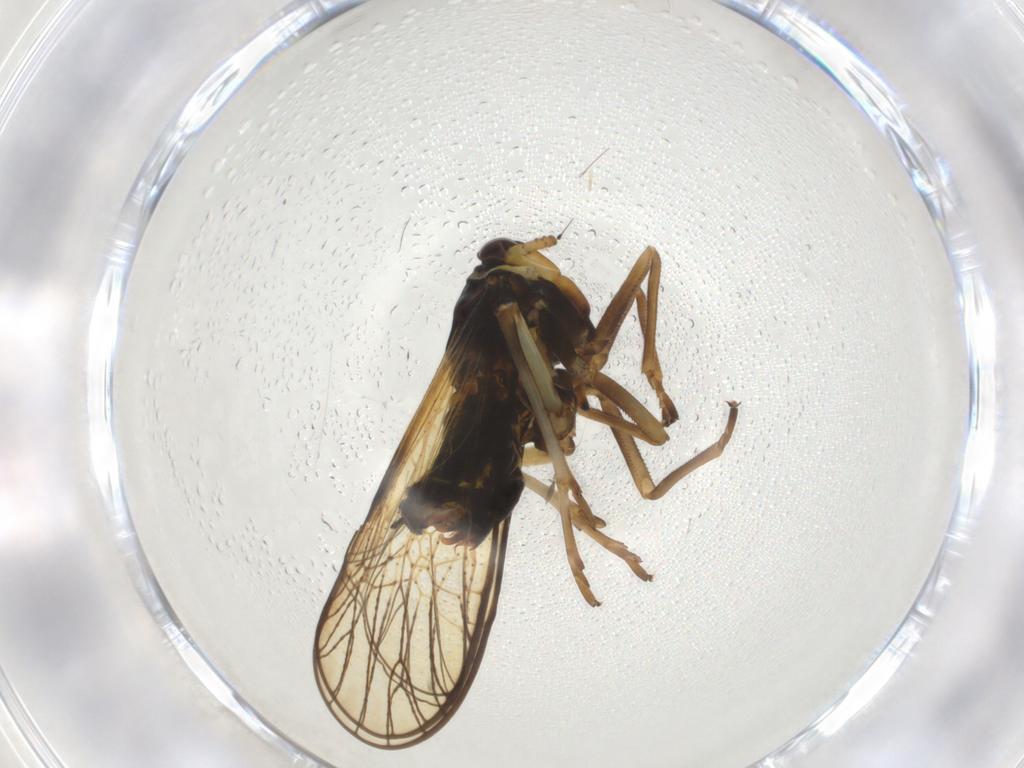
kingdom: Animalia
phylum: Arthropoda
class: Insecta
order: Diptera
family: Phoridae
